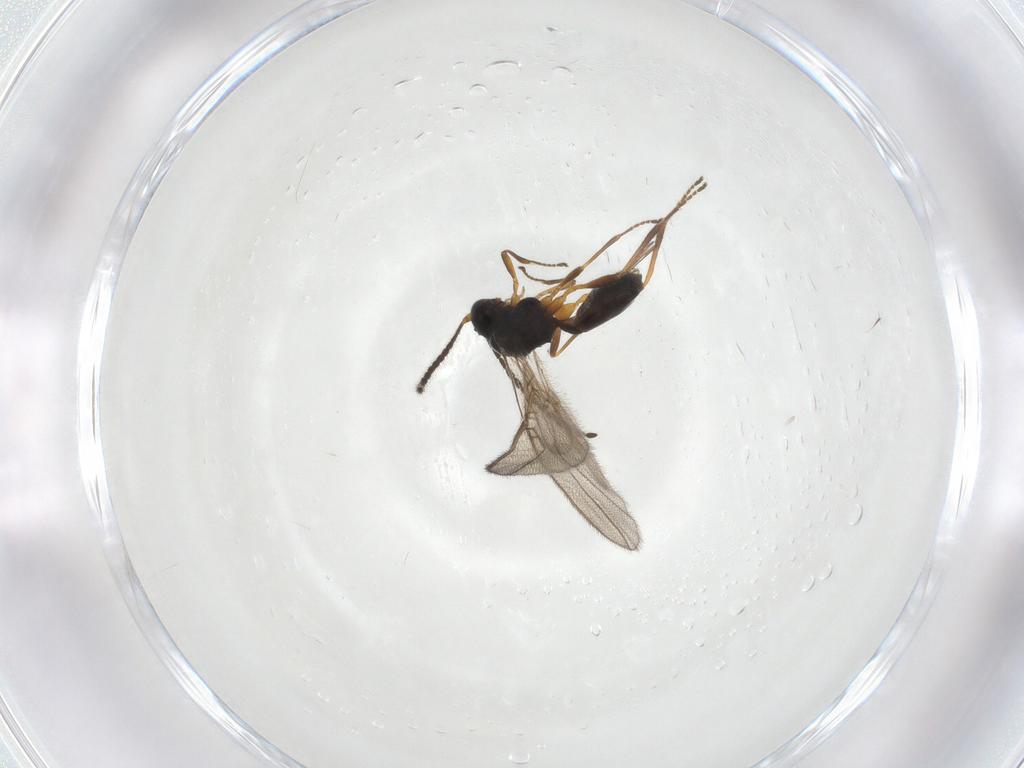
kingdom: Animalia
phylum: Arthropoda
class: Insecta
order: Hymenoptera
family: Braconidae
